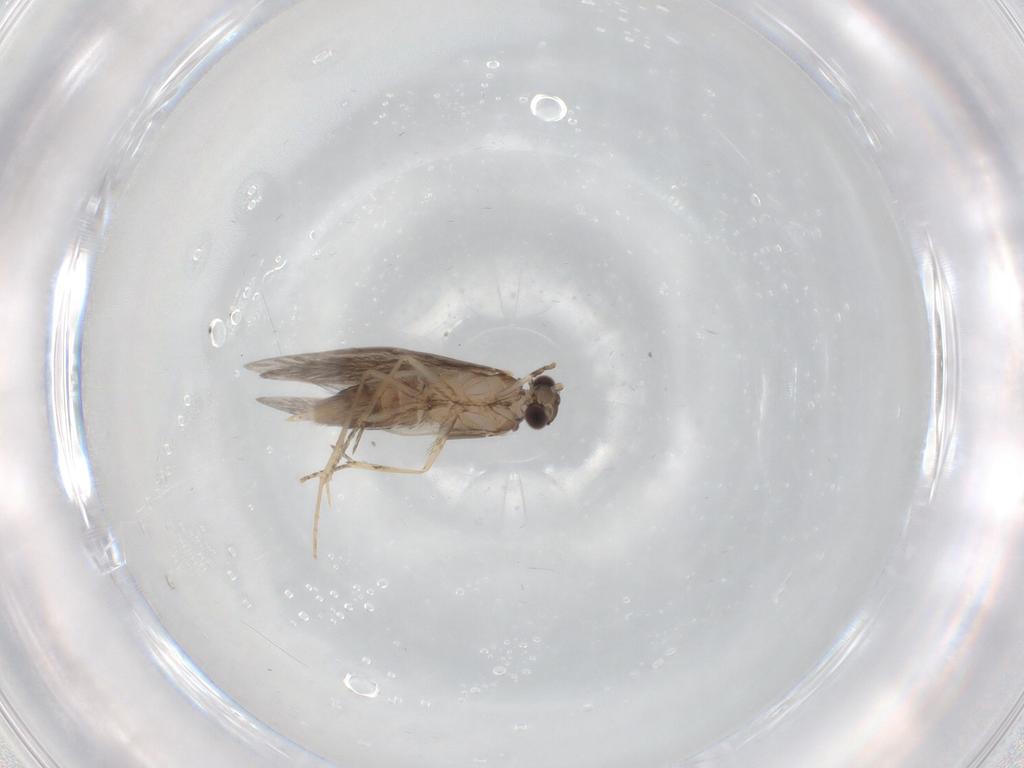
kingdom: Animalia
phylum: Arthropoda
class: Insecta
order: Trichoptera
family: Hydroptilidae
